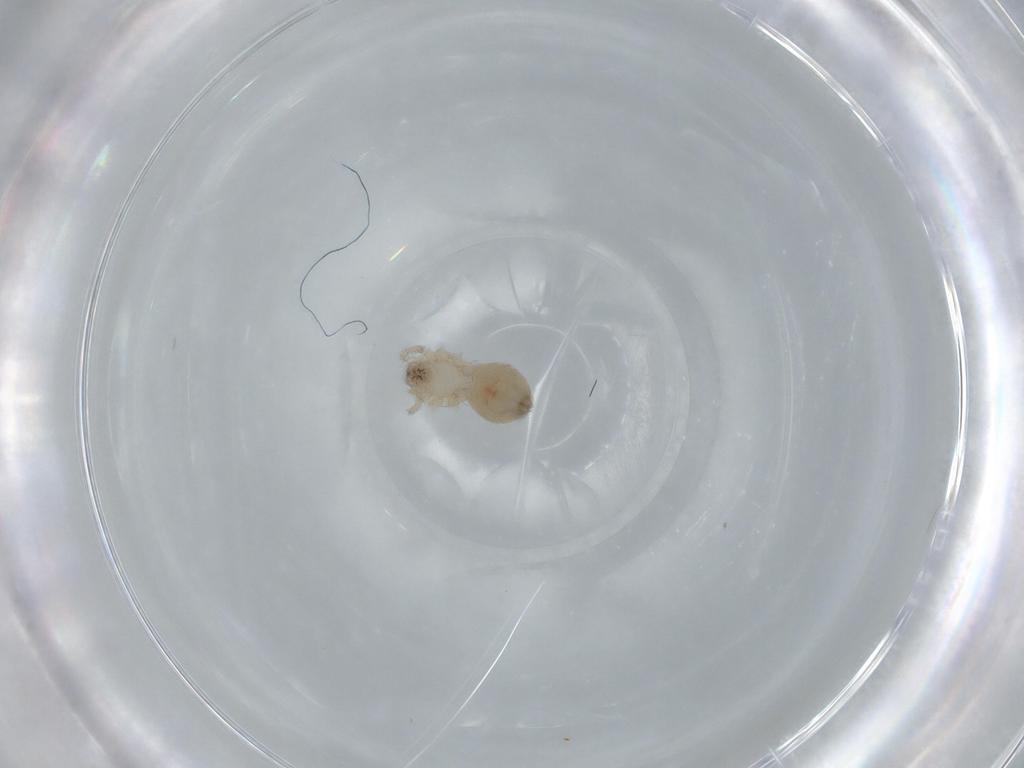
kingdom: Animalia
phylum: Arthropoda
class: Arachnida
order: Araneae
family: Oonopidae
